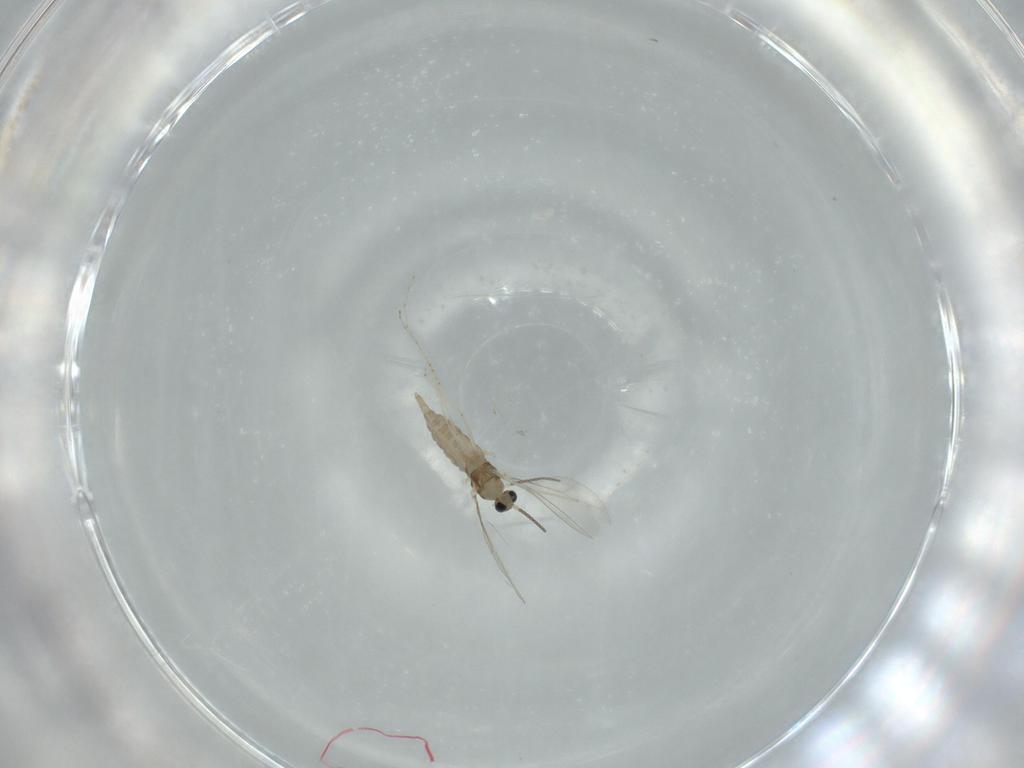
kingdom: Animalia
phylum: Arthropoda
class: Insecta
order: Diptera
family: Cecidomyiidae
